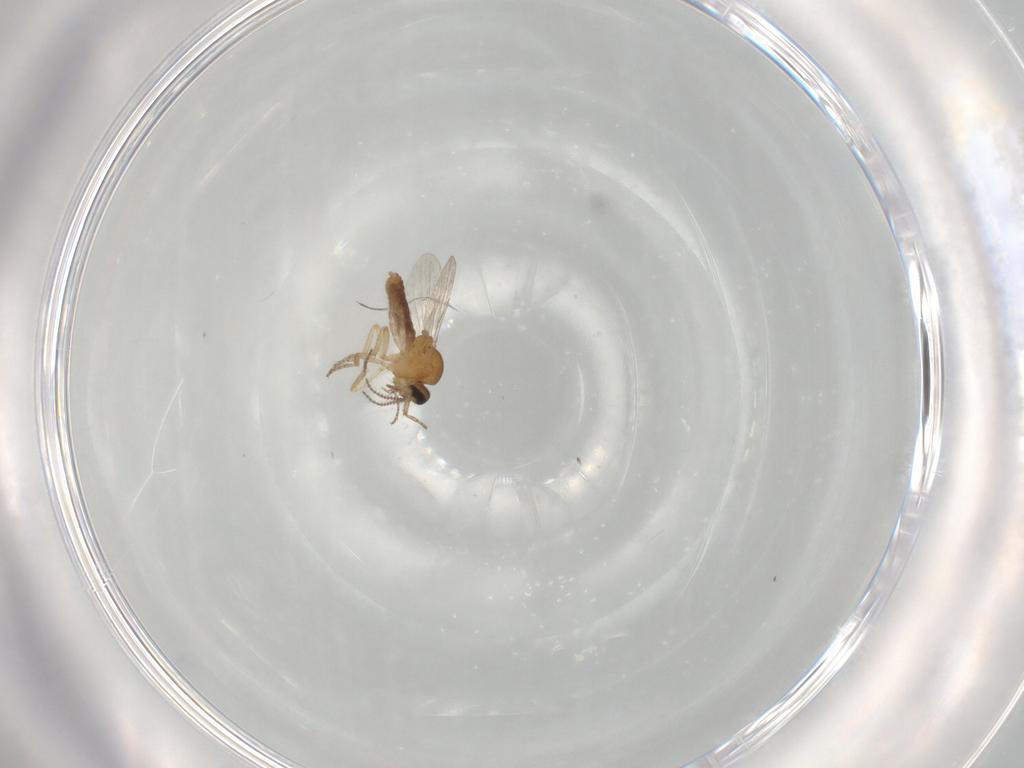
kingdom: Animalia
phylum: Arthropoda
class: Insecta
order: Diptera
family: Ceratopogonidae
